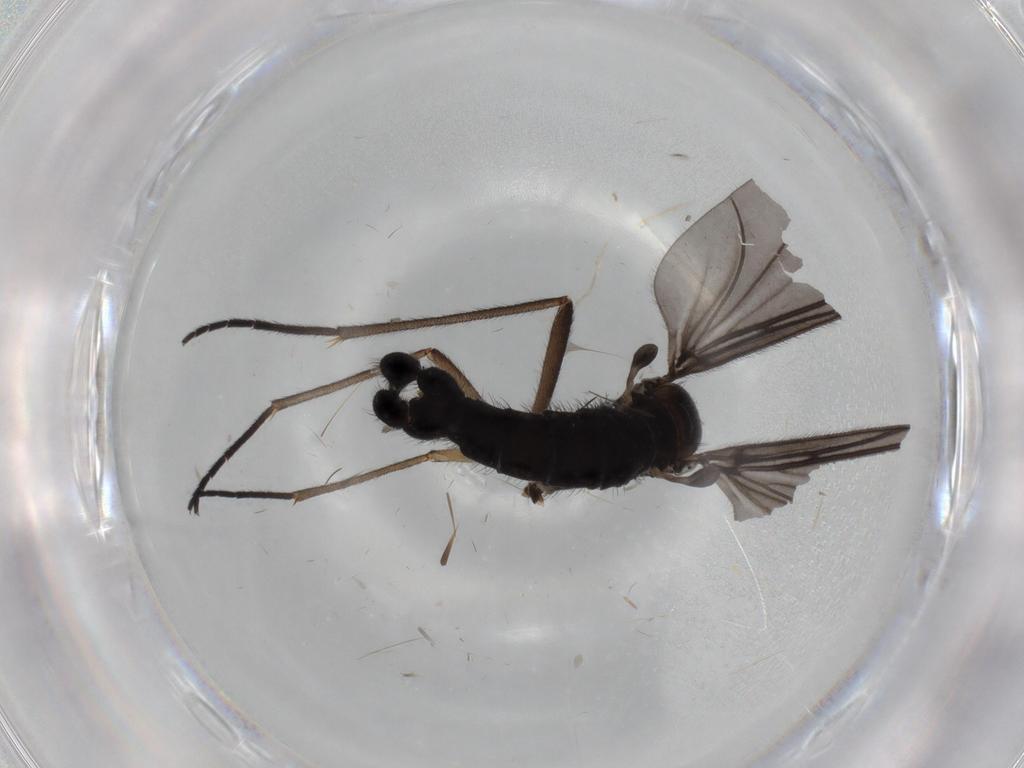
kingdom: Animalia
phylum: Arthropoda
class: Insecta
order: Diptera
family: Sciaridae
